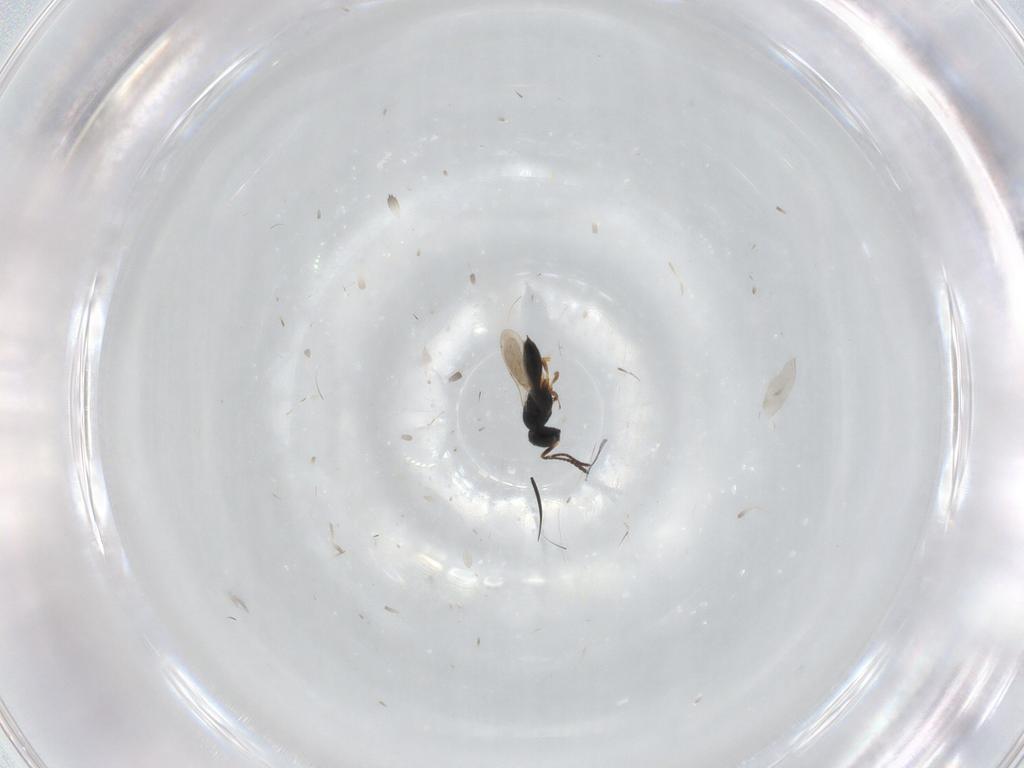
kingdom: Animalia
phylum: Arthropoda
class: Insecta
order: Hymenoptera
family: Scelionidae
